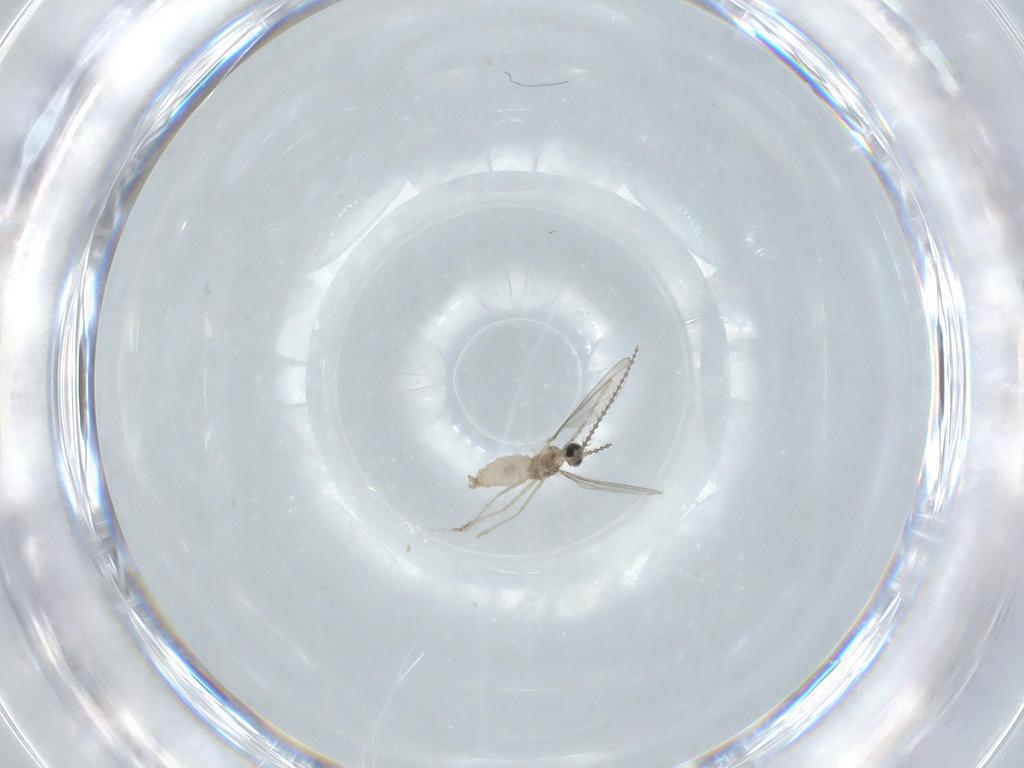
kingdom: Animalia
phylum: Arthropoda
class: Insecta
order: Diptera
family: Cecidomyiidae
